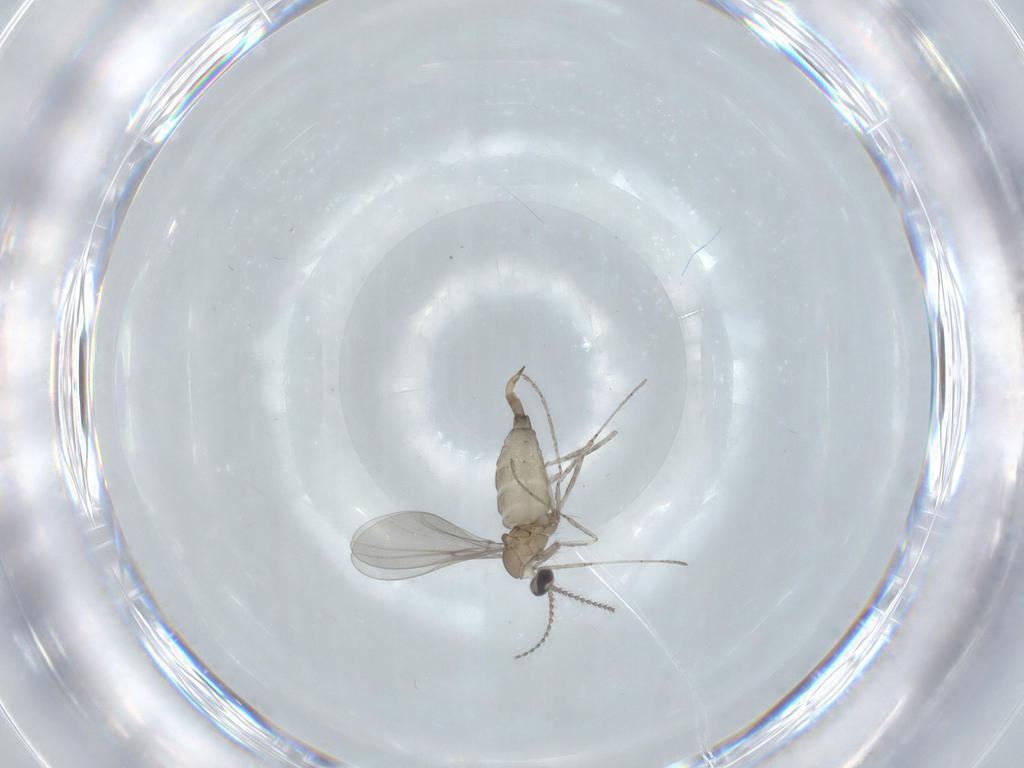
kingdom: Animalia
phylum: Arthropoda
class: Insecta
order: Diptera
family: Cecidomyiidae
